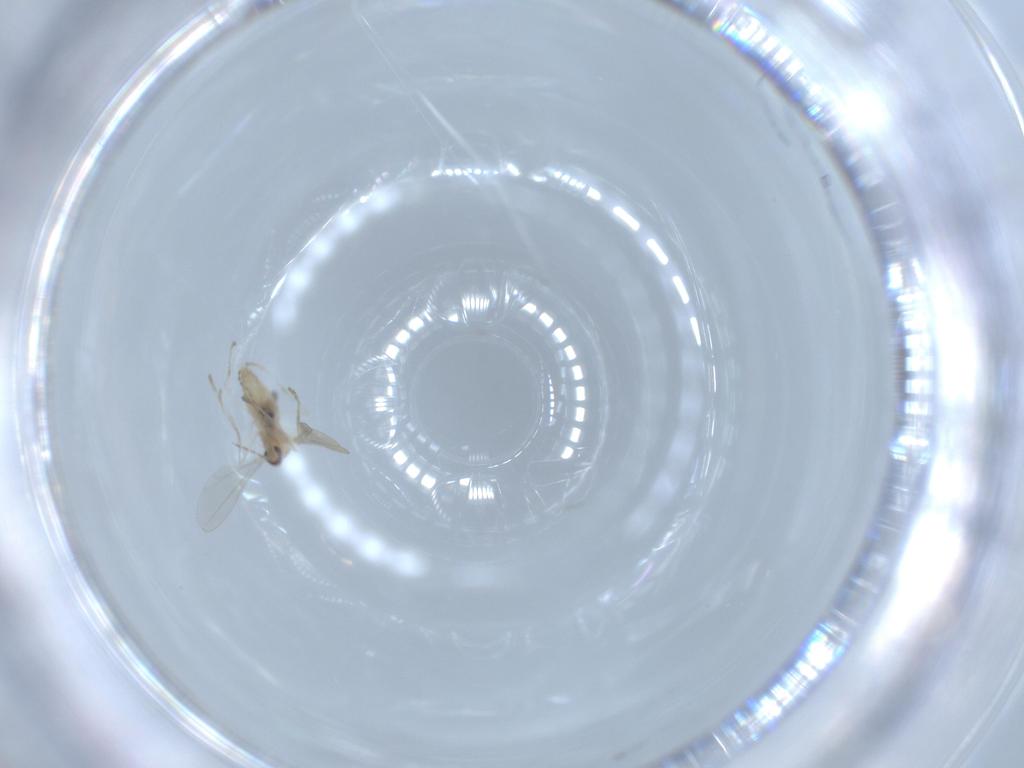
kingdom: Animalia
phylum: Arthropoda
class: Insecta
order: Diptera
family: Cecidomyiidae
